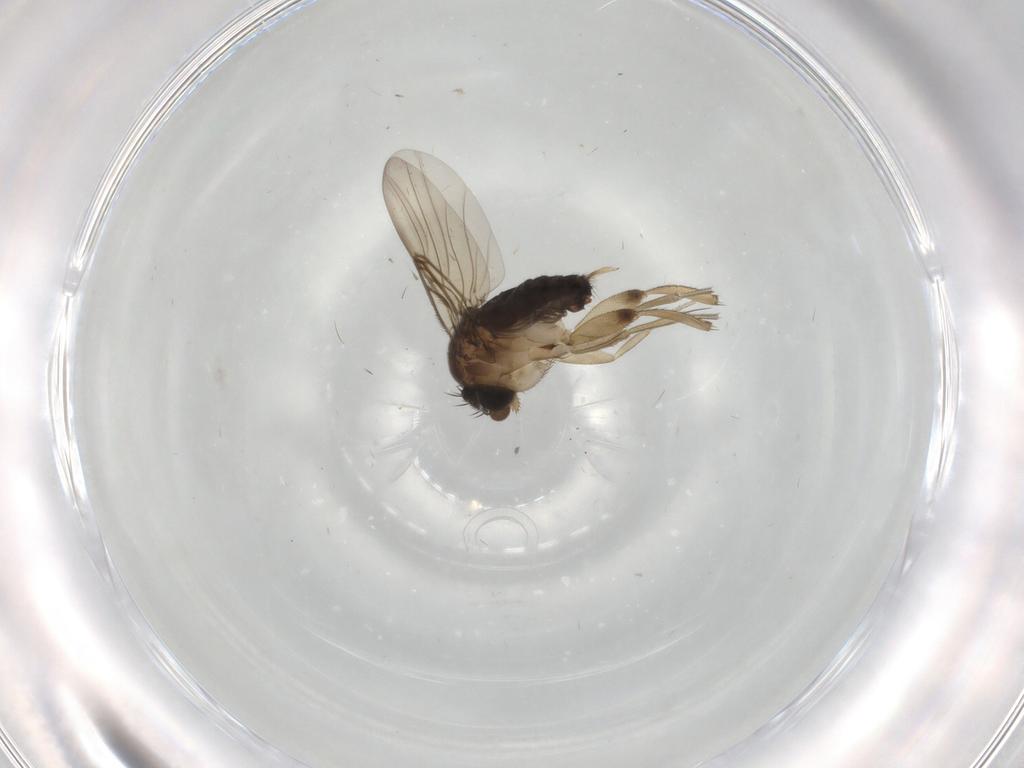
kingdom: Animalia
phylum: Arthropoda
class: Insecta
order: Diptera
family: Phoridae
